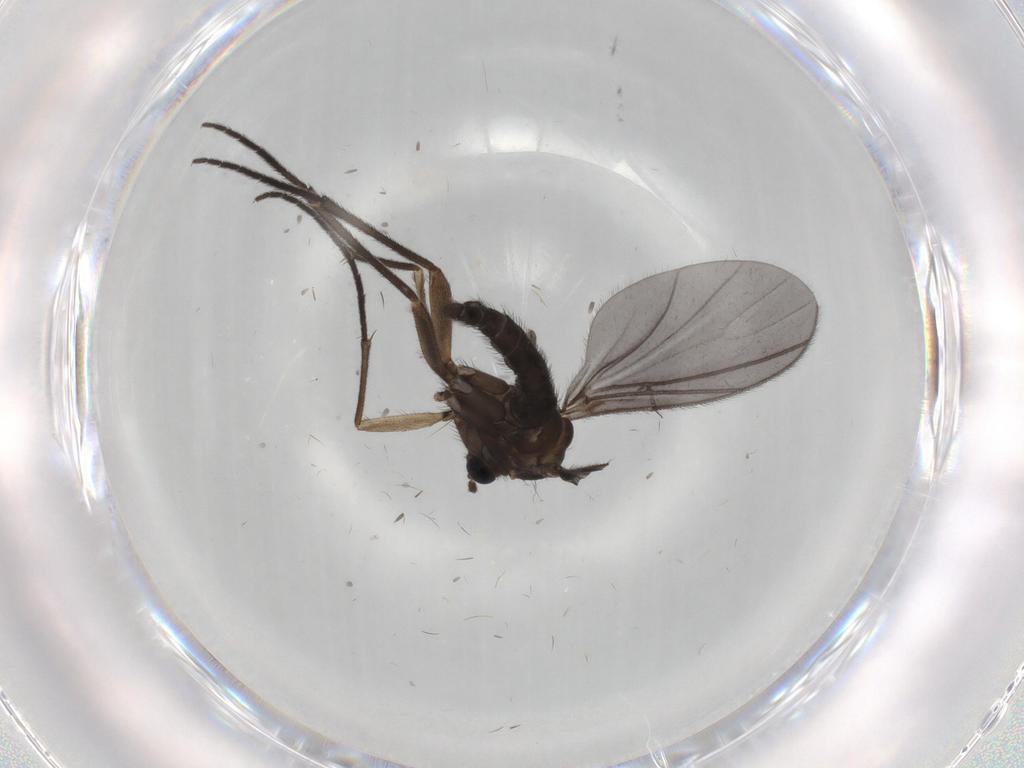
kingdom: Animalia
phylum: Arthropoda
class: Insecta
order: Diptera
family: Sciaridae
